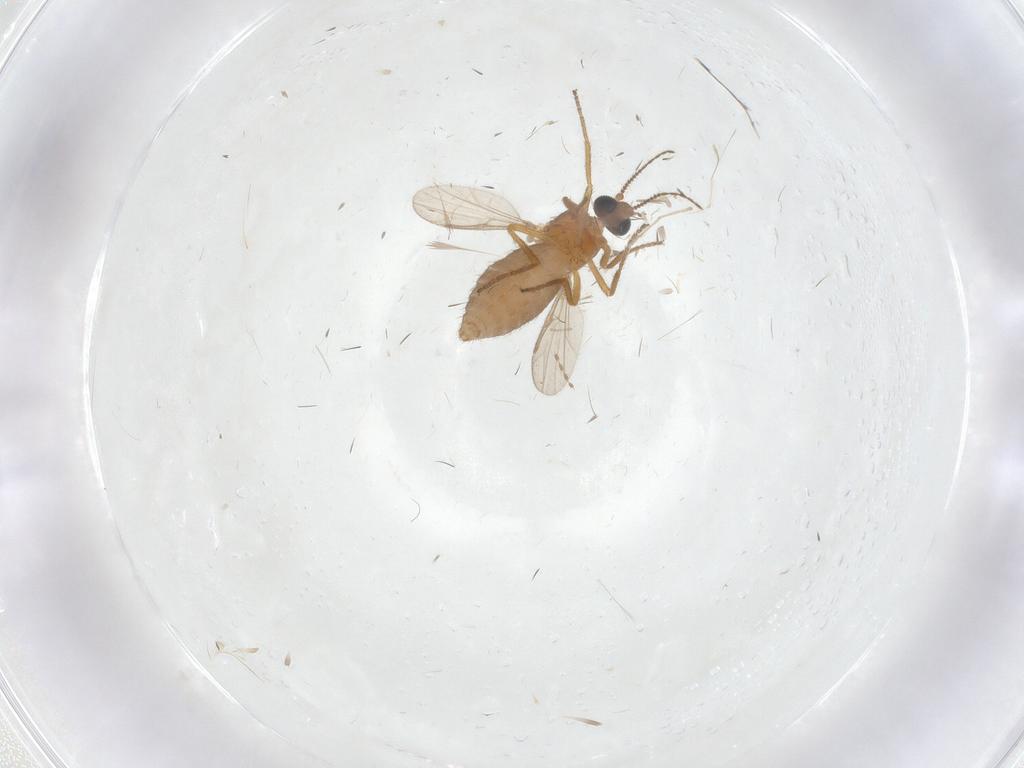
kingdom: Animalia
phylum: Arthropoda
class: Insecta
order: Diptera
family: Ceratopogonidae
